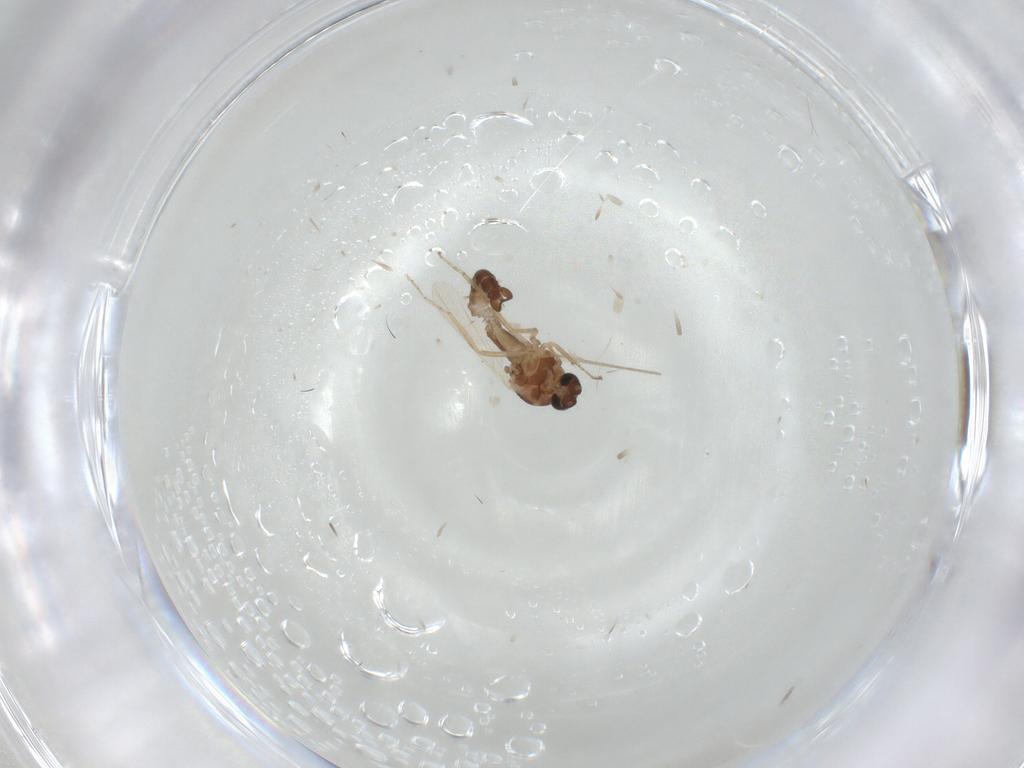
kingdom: Animalia
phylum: Arthropoda
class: Insecta
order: Diptera
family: Ceratopogonidae
